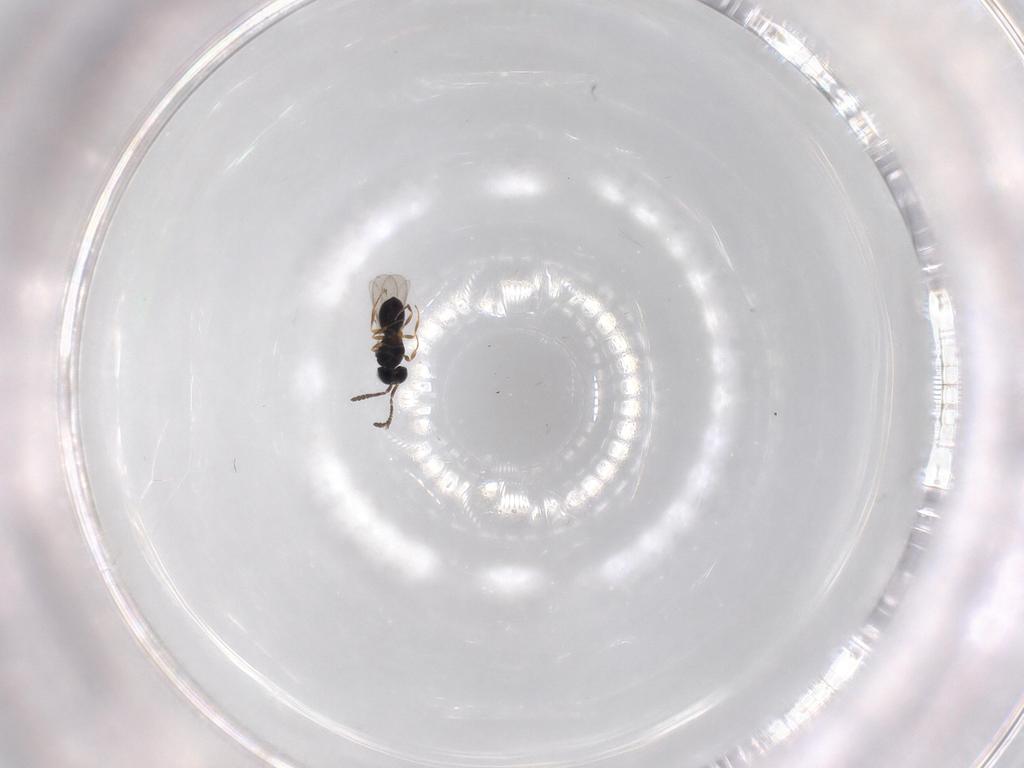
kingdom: Animalia
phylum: Arthropoda
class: Insecta
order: Hymenoptera
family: Scelionidae
